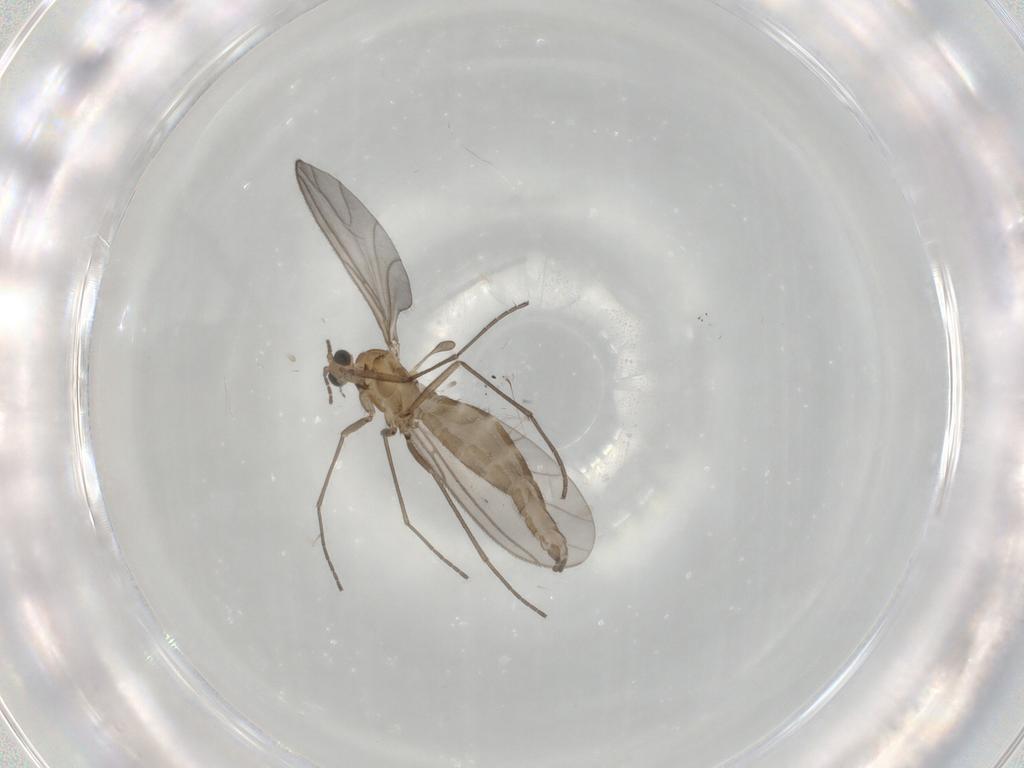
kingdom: Animalia
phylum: Arthropoda
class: Insecta
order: Diptera
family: Sciaridae
